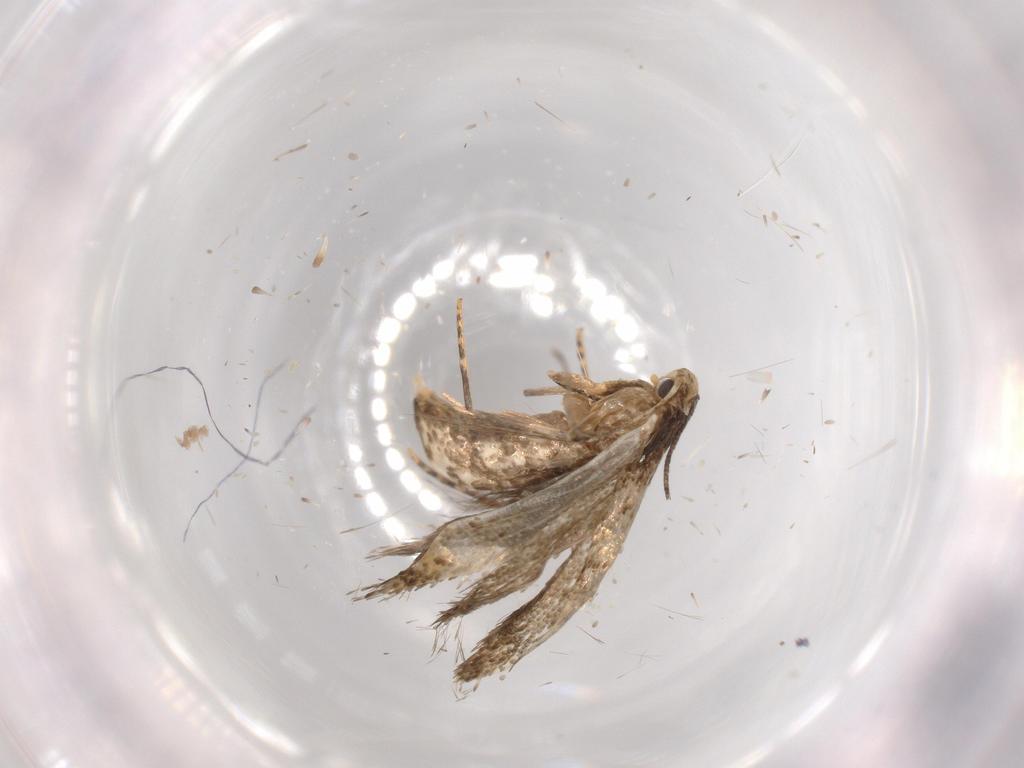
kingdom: Animalia
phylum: Arthropoda
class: Insecta
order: Lepidoptera
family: Tineidae
